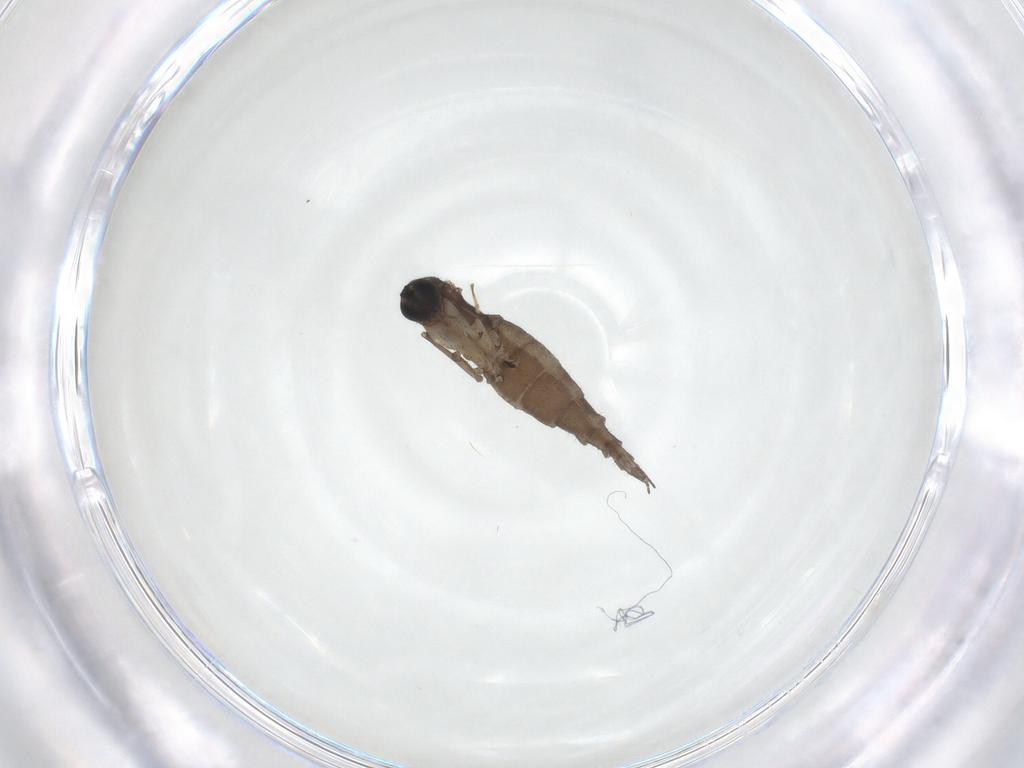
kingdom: Animalia
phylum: Arthropoda
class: Insecta
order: Diptera
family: Sciaridae
